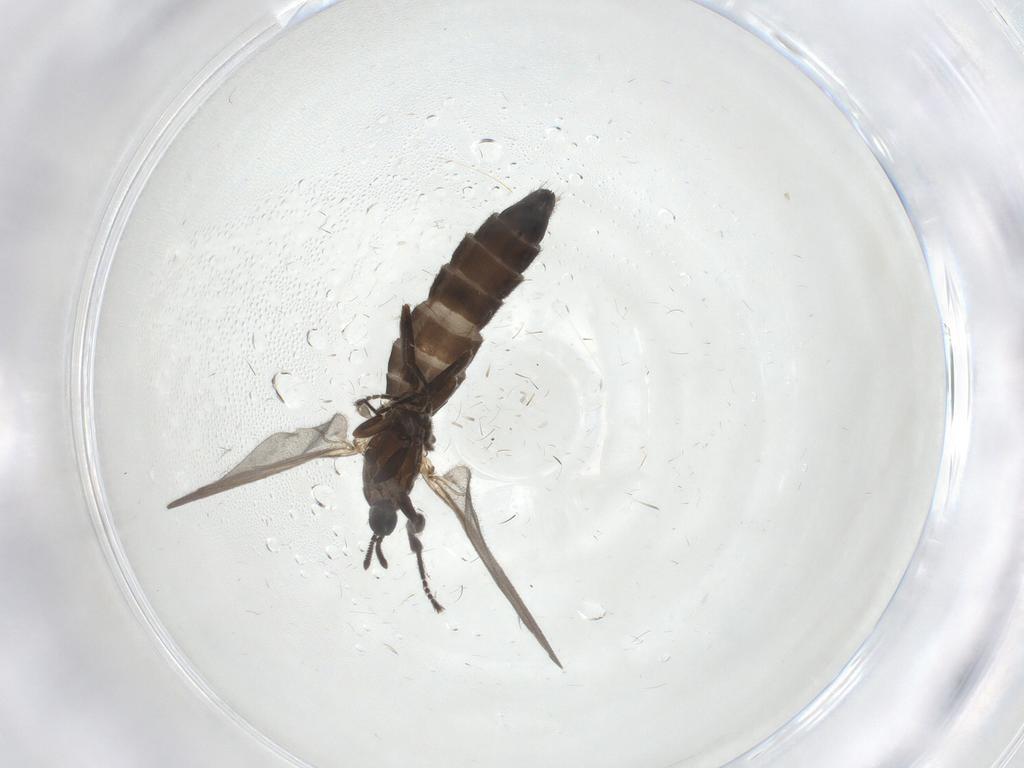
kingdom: Animalia
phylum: Arthropoda
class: Insecta
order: Diptera
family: Scatopsidae
